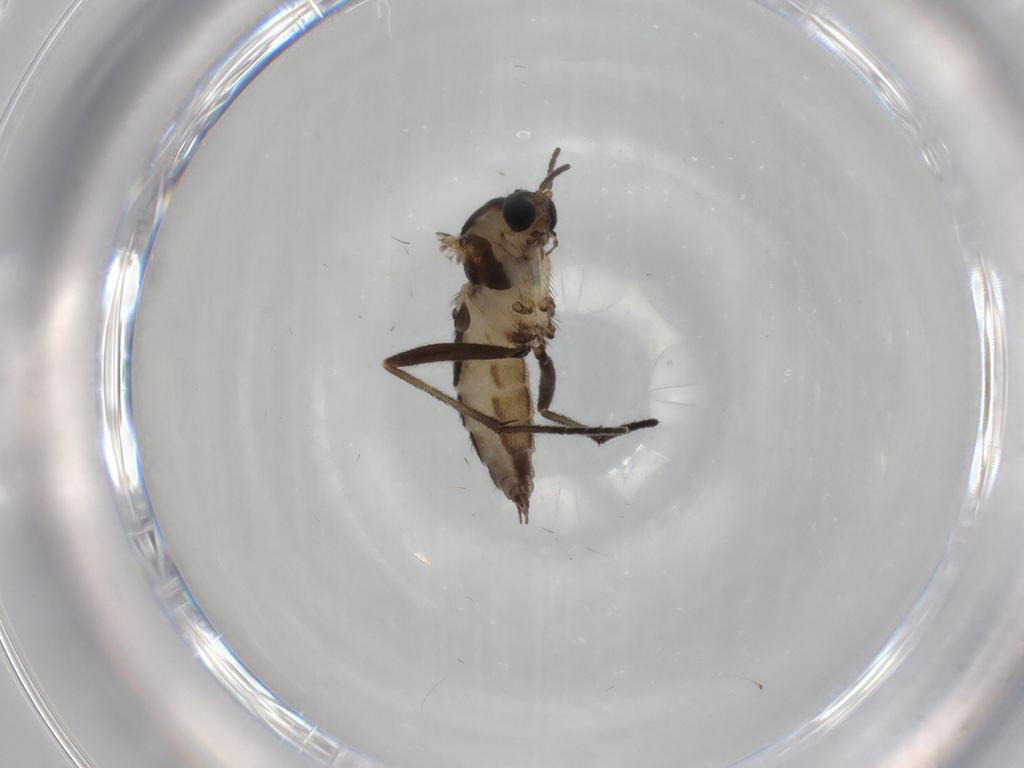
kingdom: Animalia
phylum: Arthropoda
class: Insecta
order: Diptera
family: Sciaridae
